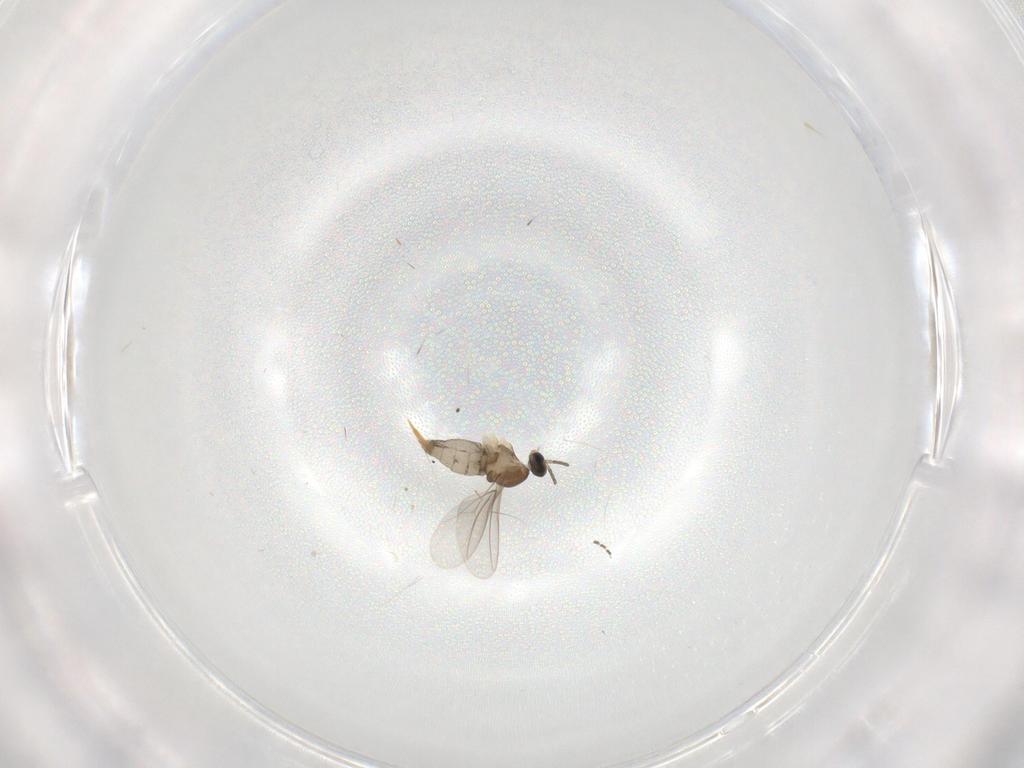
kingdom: Animalia
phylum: Arthropoda
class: Insecta
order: Diptera
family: Cecidomyiidae
